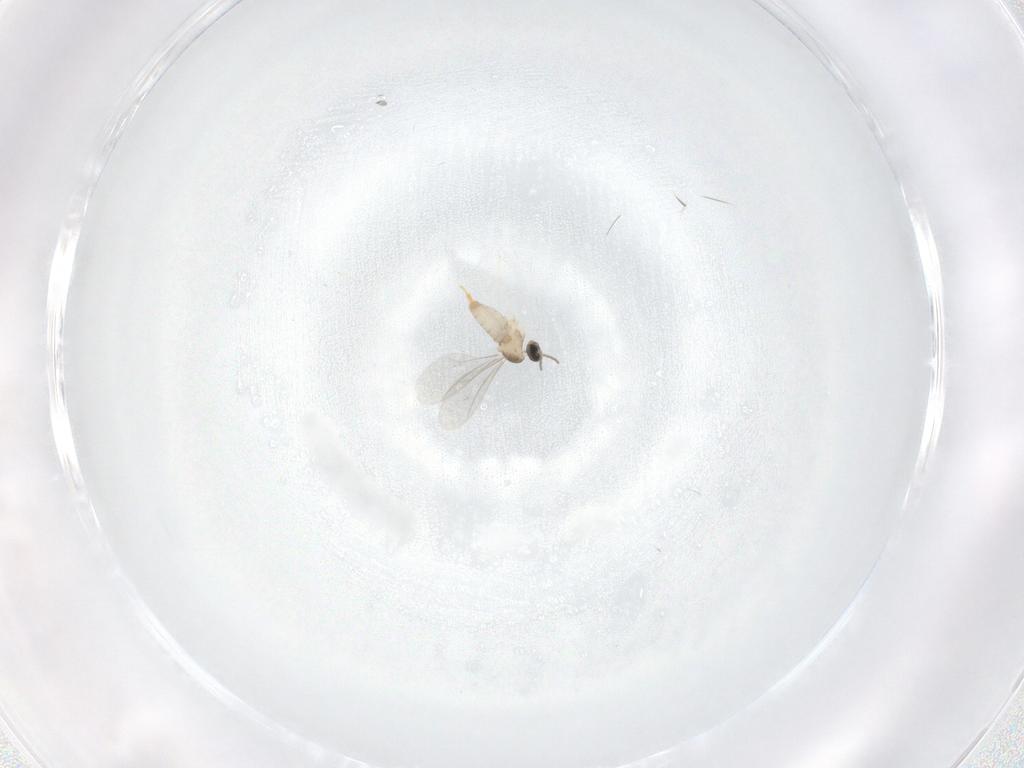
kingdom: Animalia
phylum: Arthropoda
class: Insecta
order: Diptera
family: Cecidomyiidae
